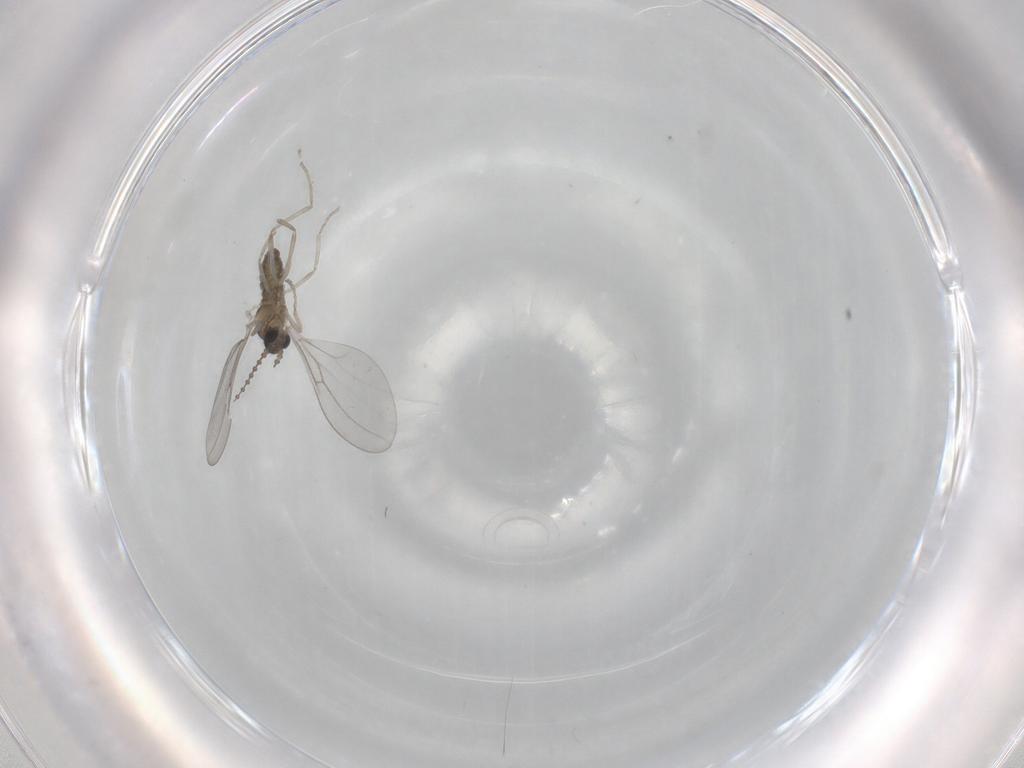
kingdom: Animalia
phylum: Arthropoda
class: Insecta
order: Diptera
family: Cecidomyiidae
